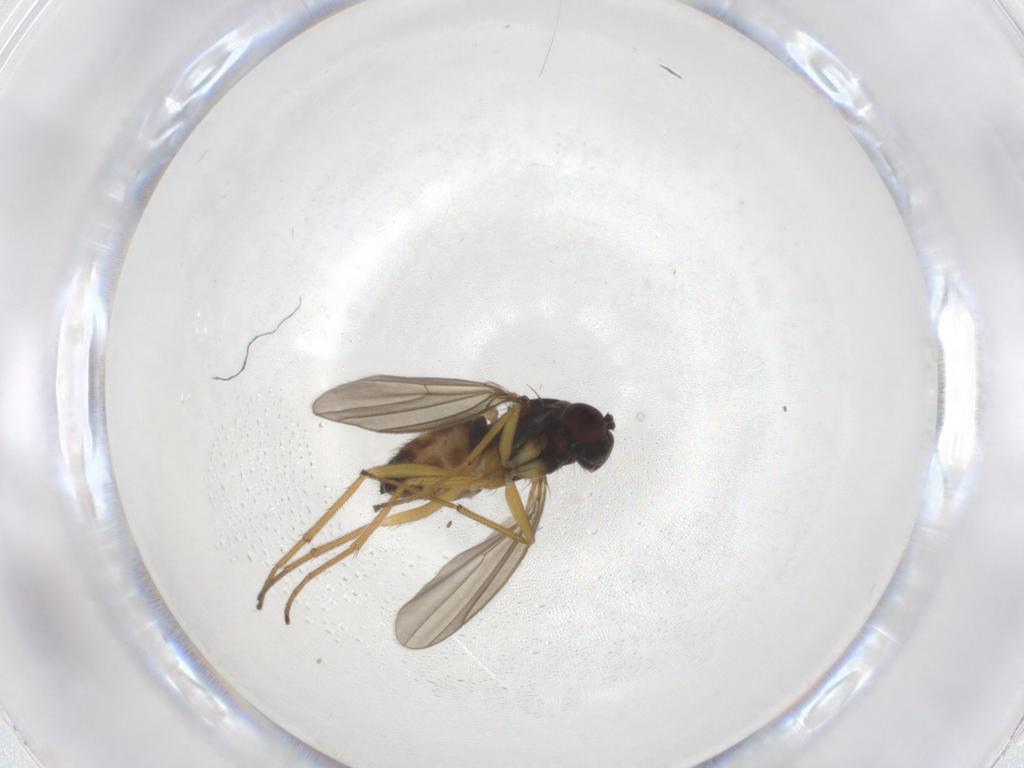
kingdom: Animalia
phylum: Arthropoda
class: Insecta
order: Diptera
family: Dolichopodidae
